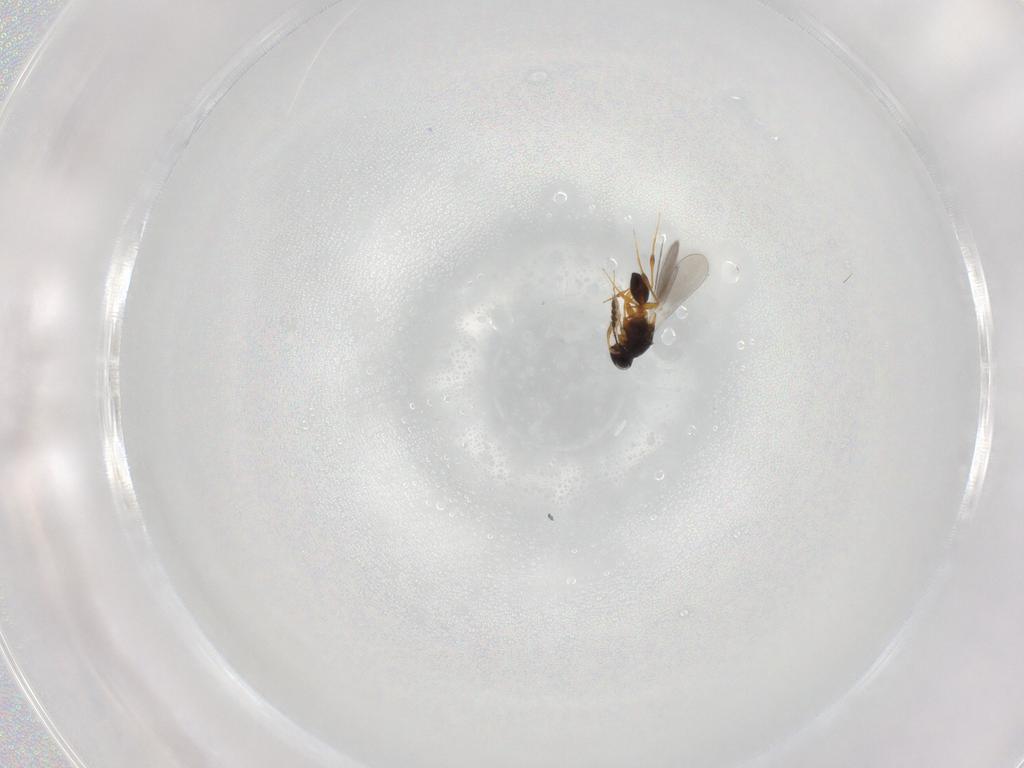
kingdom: Animalia
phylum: Arthropoda
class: Insecta
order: Hymenoptera
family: Platygastridae
